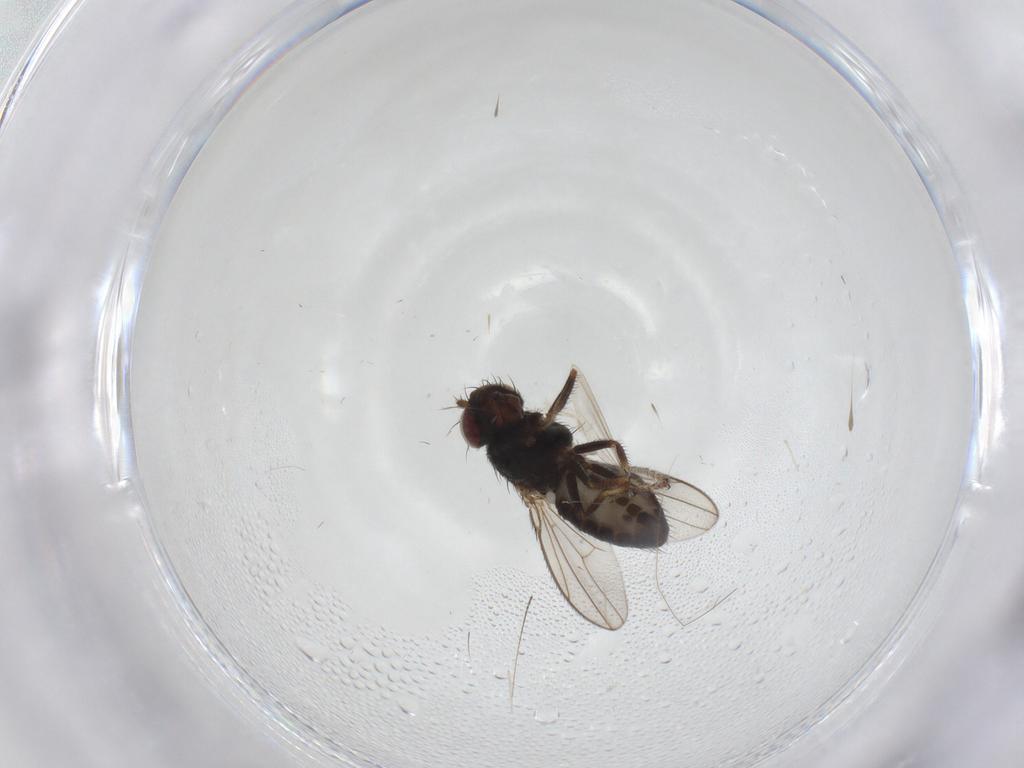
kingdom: Animalia
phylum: Arthropoda
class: Insecta
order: Diptera
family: Ephydridae
